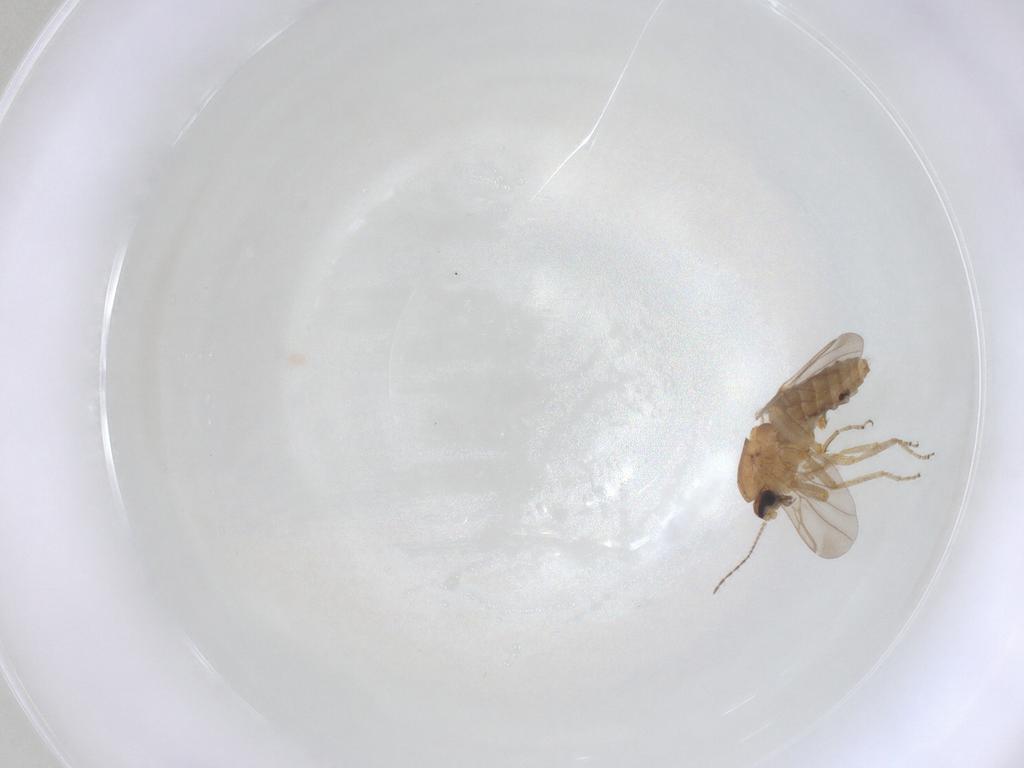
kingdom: Animalia
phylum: Arthropoda
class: Insecta
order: Diptera
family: Ceratopogonidae
